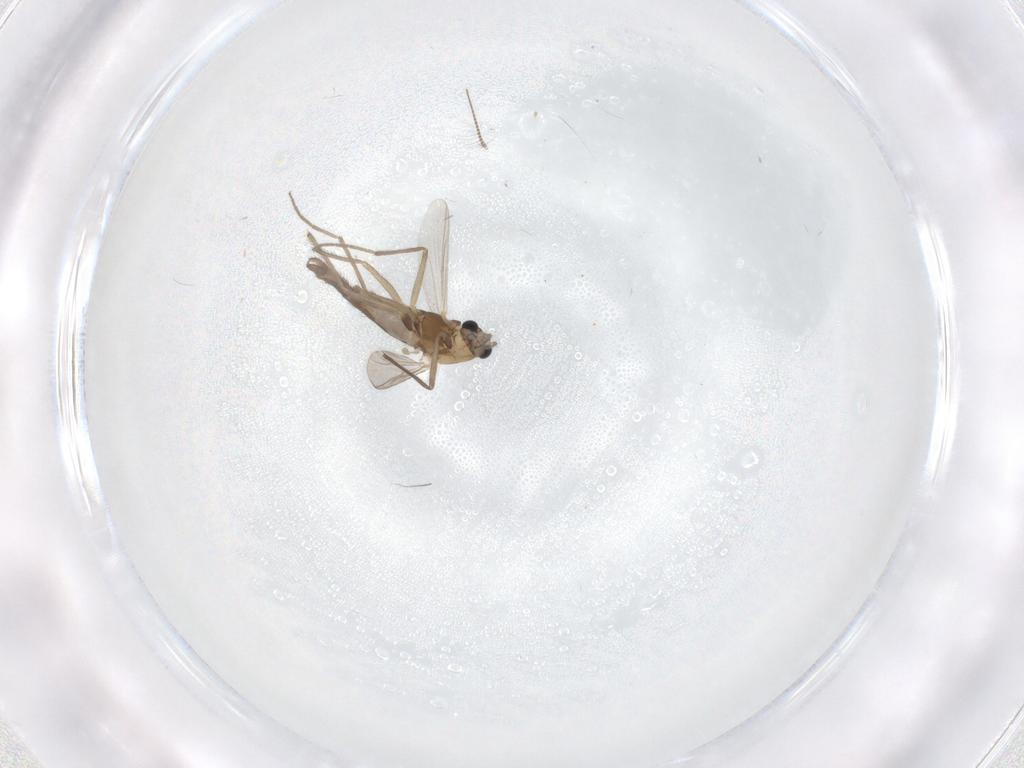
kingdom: Animalia
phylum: Arthropoda
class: Insecta
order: Diptera
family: Chironomidae
